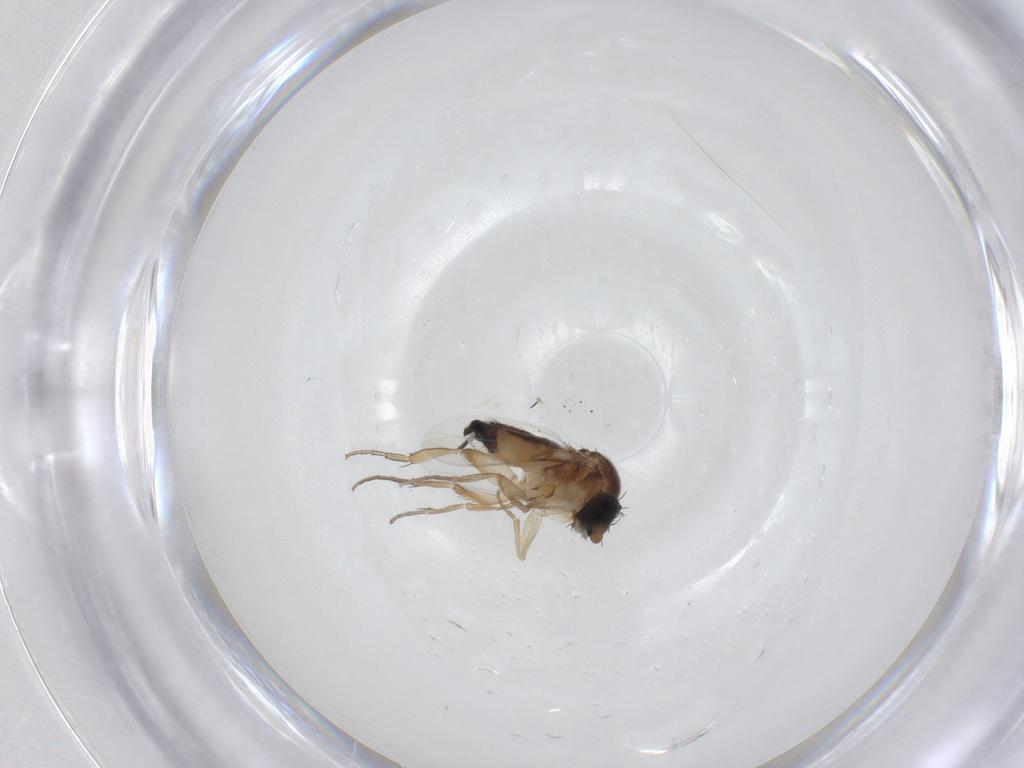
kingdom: Animalia
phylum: Arthropoda
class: Insecta
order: Diptera
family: Phoridae
